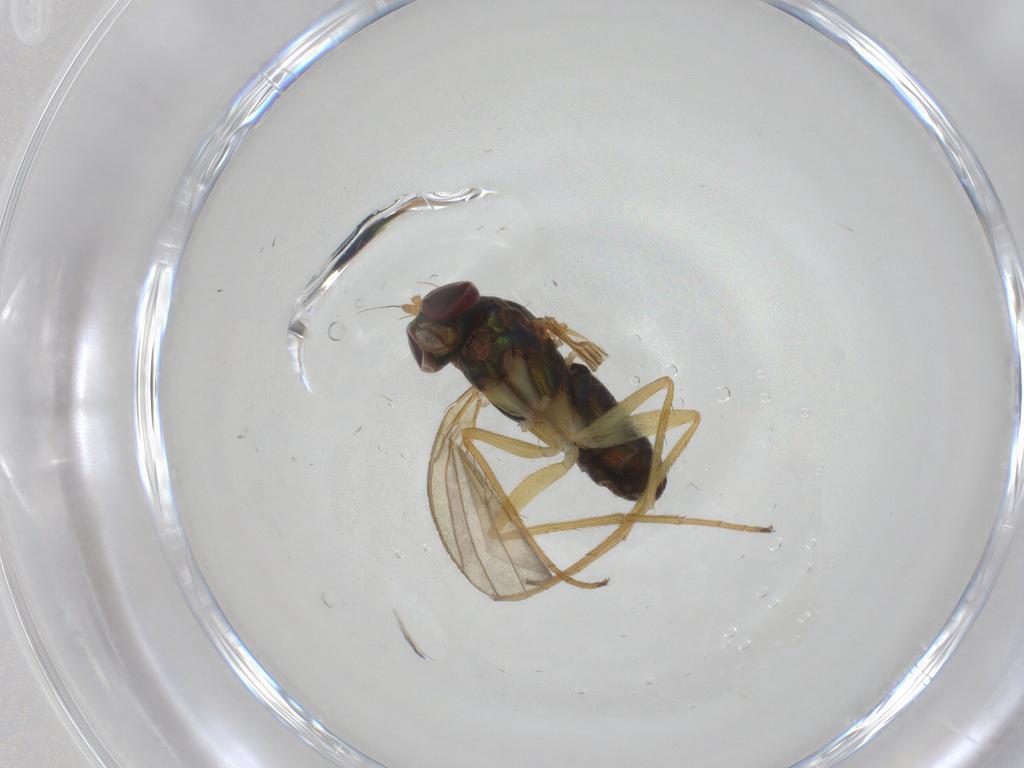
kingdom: Animalia
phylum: Arthropoda
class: Insecta
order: Diptera
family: Dolichopodidae
